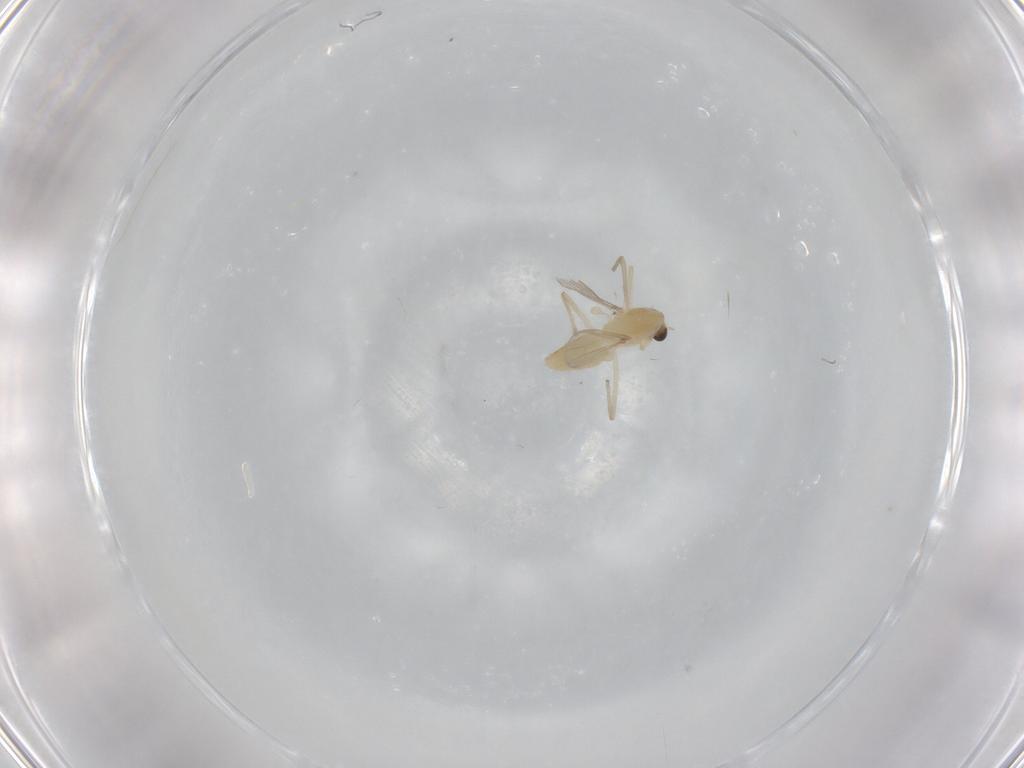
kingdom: Animalia
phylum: Arthropoda
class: Insecta
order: Diptera
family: Chironomidae
